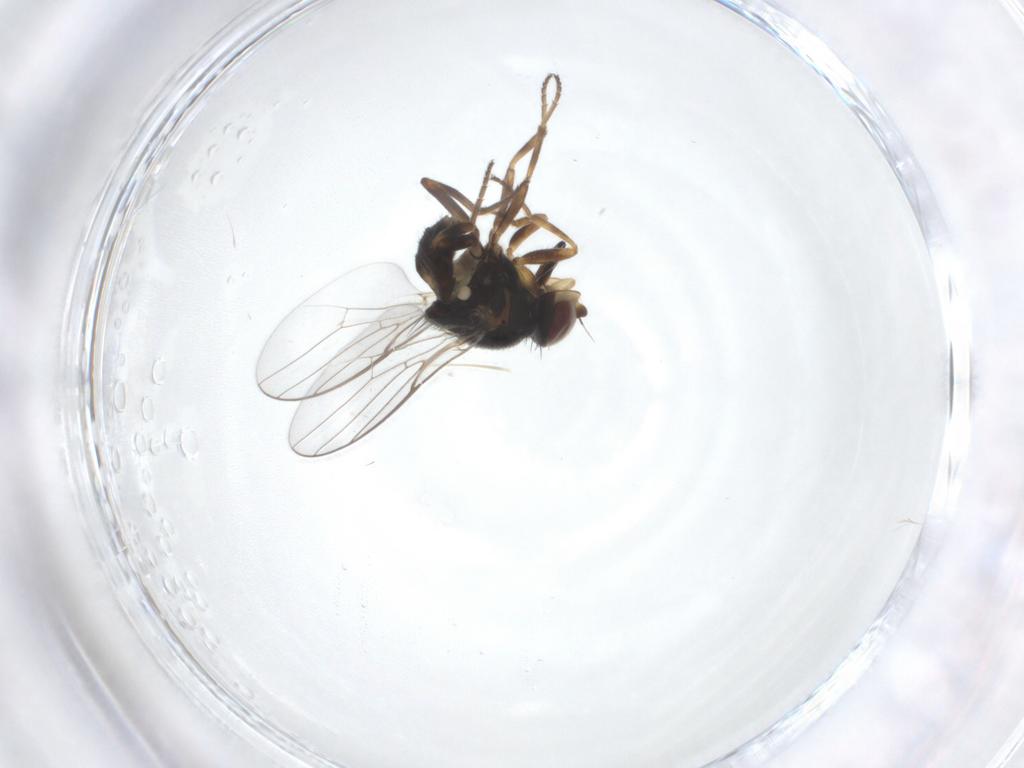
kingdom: Animalia
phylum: Arthropoda
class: Insecta
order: Diptera
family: Chloropidae
